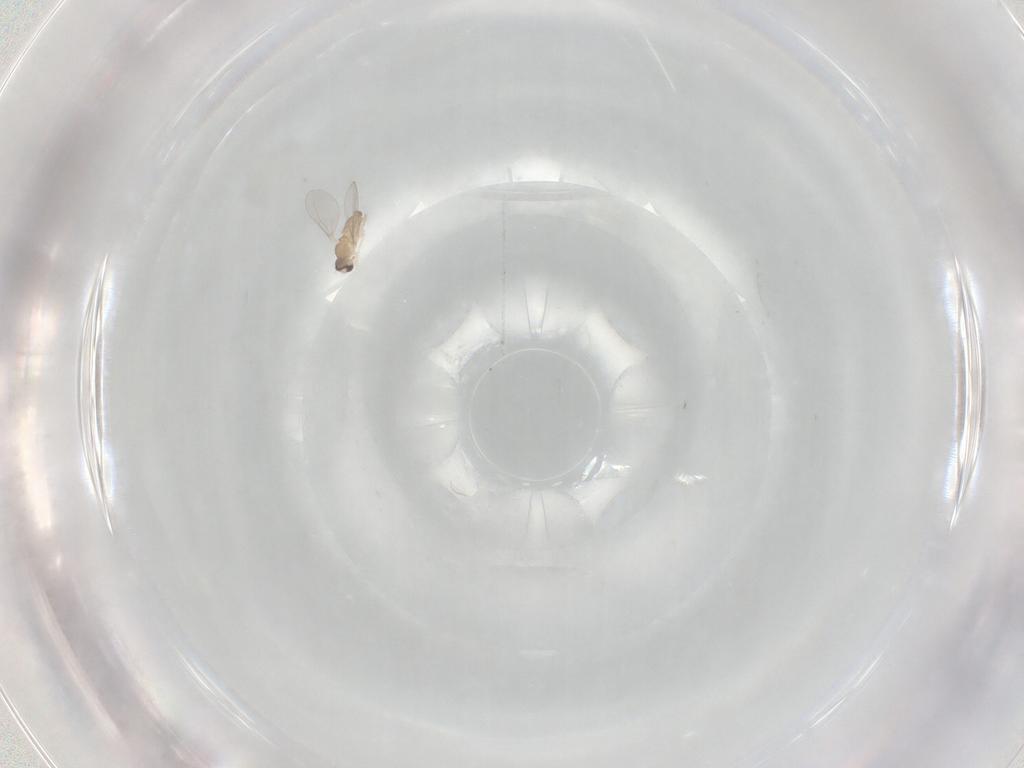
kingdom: Animalia
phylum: Arthropoda
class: Insecta
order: Diptera
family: Cecidomyiidae
